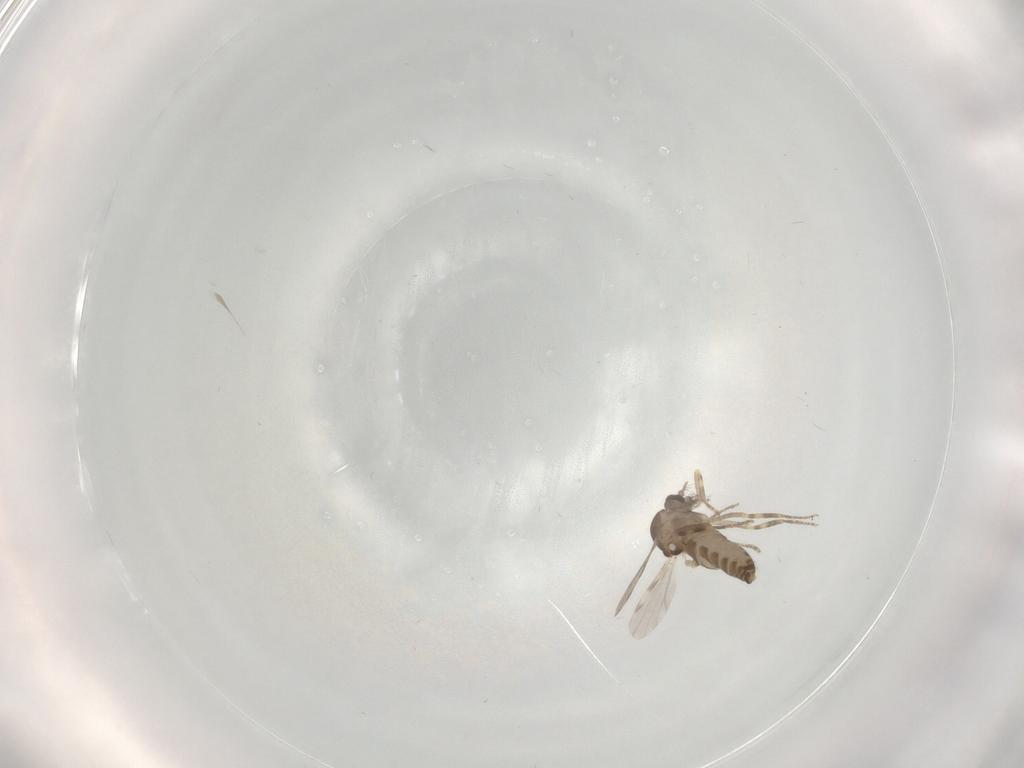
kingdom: Animalia
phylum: Arthropoda
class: Insecta
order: Diptera
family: Ceratopogonidae
